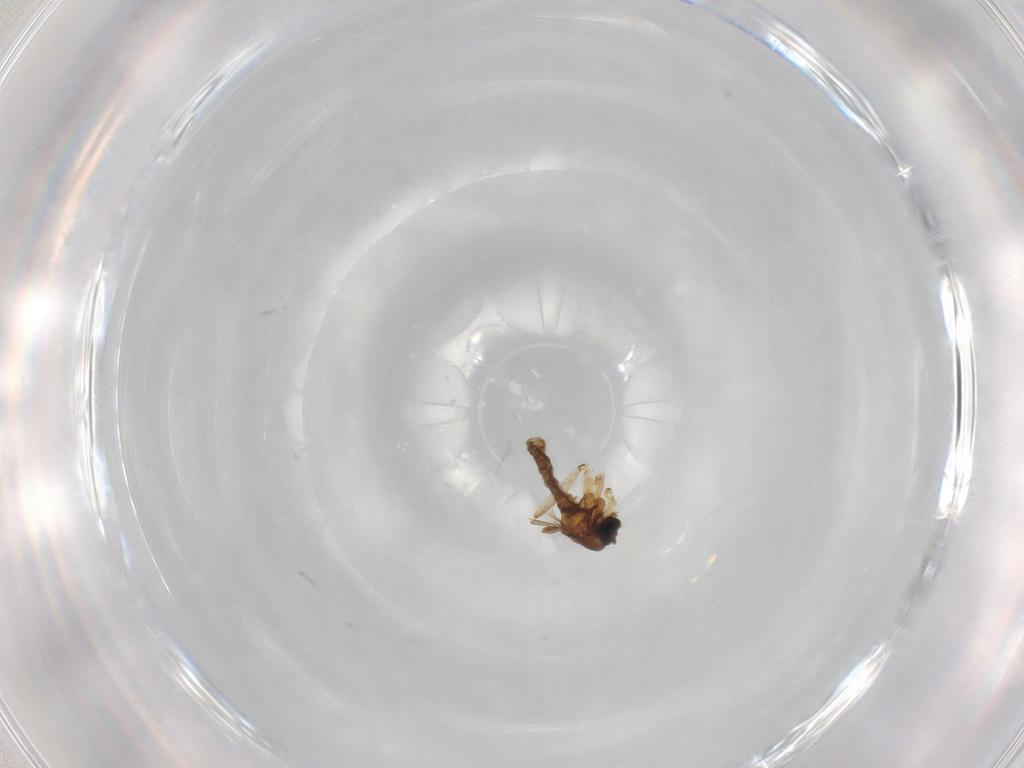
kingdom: Animalia
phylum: Arthropoda
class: Insecta
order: Diptera
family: Sciaridae
